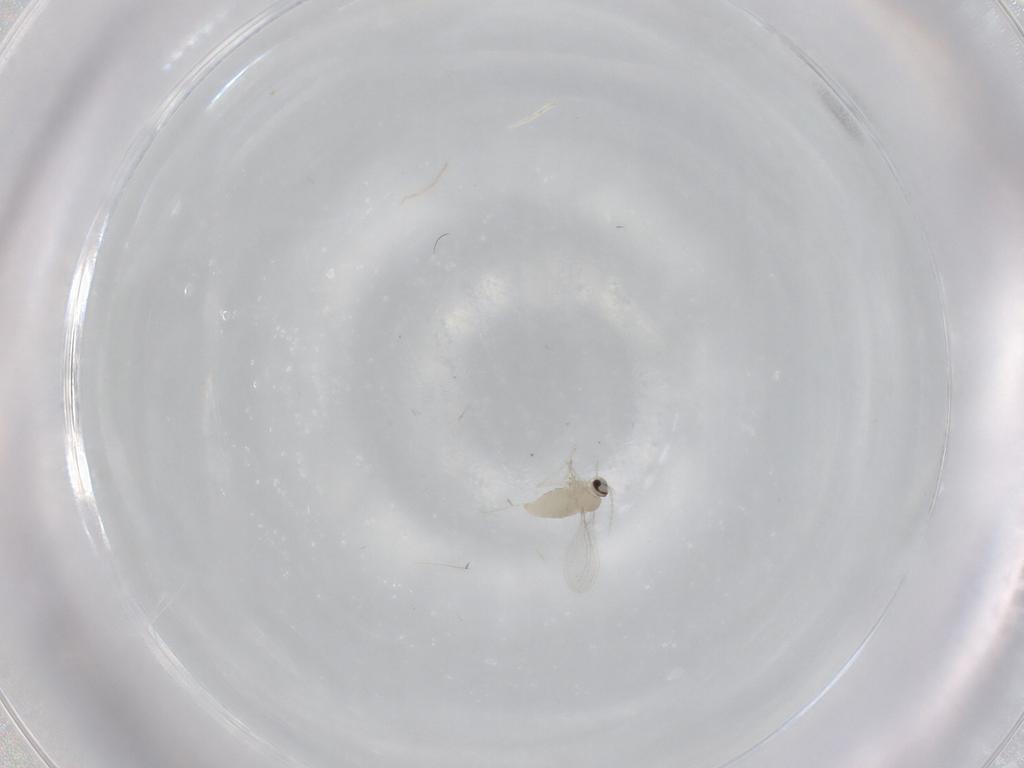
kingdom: Animalia
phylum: Arthropoda
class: Insecta
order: Diptera
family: Cecidomyiidae
